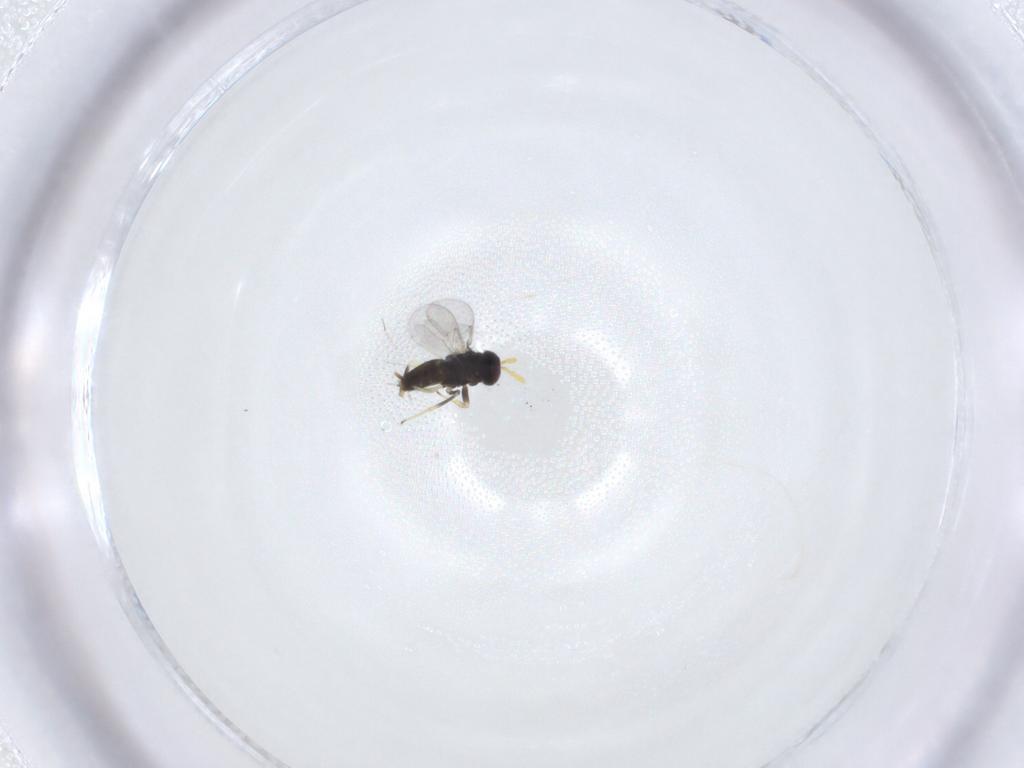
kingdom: Animalia
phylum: Arthropoda
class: Insecta
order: Hymenoptera
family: Aphelinidae
